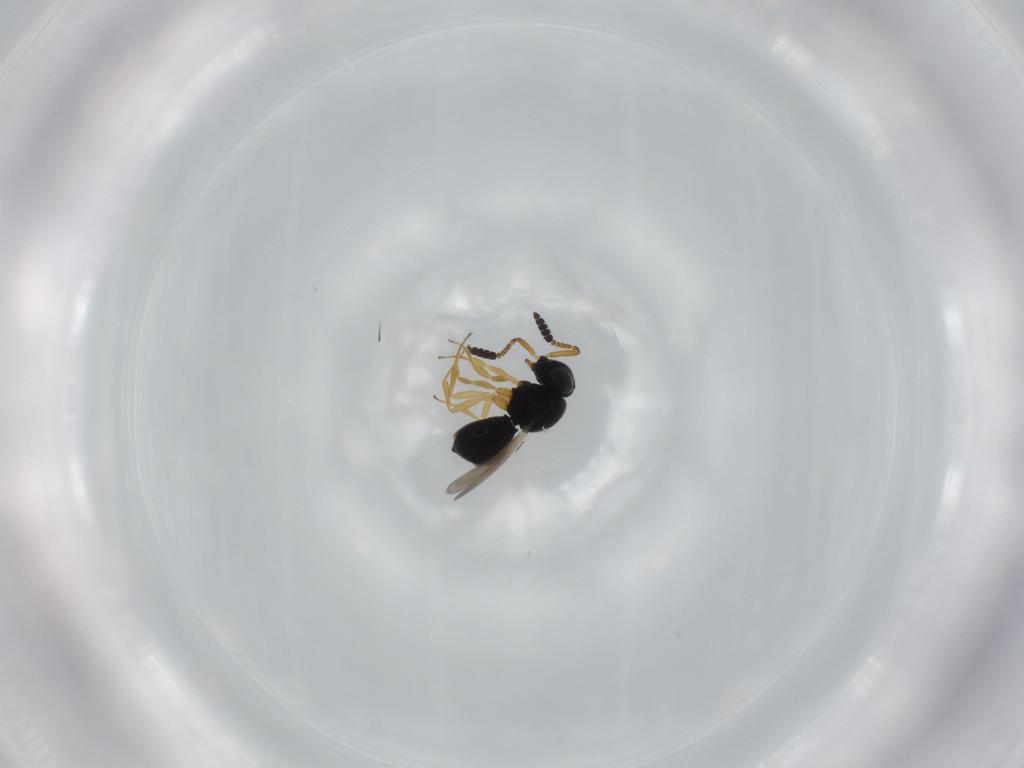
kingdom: Animalia
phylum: Arthropoda
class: Insecta
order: Hymenoptera
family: Scelionidae
